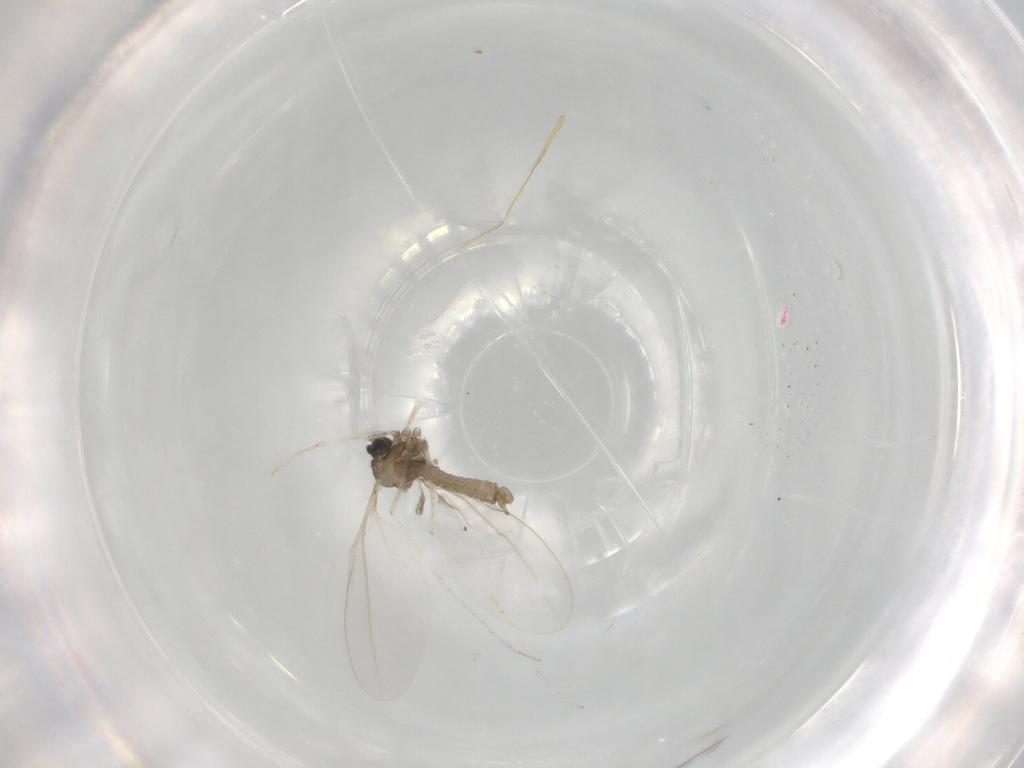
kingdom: Animalia
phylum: Arthropoda
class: Insecta
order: Diptera
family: Cecidomyiidae
